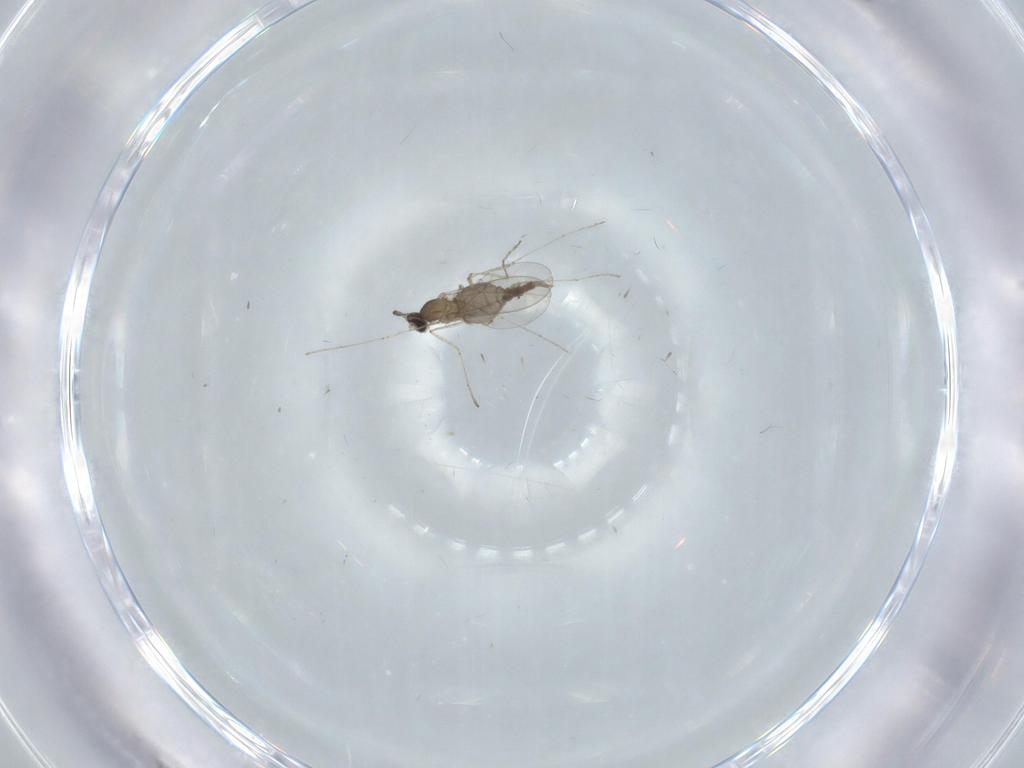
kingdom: Animalia
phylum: Arthropoda
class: Insecta
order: Diptera
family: Cecidomyiidae
